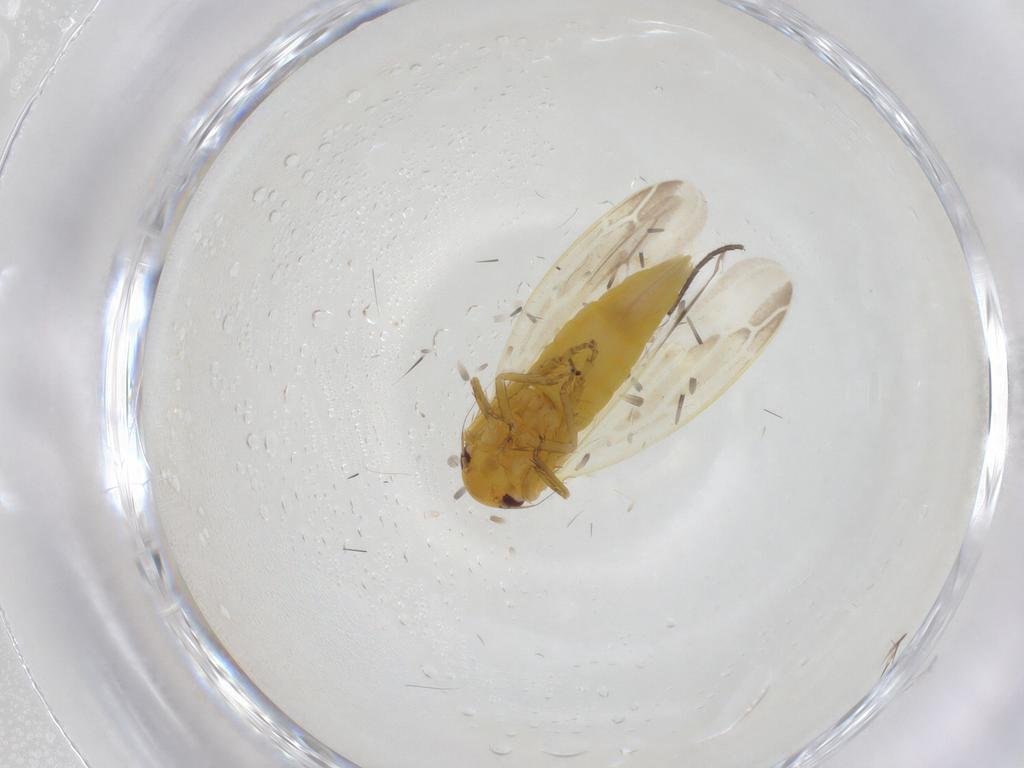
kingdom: Animalia
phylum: Arthropoda
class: Insecta
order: Hemiptera
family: Cicadellidae
